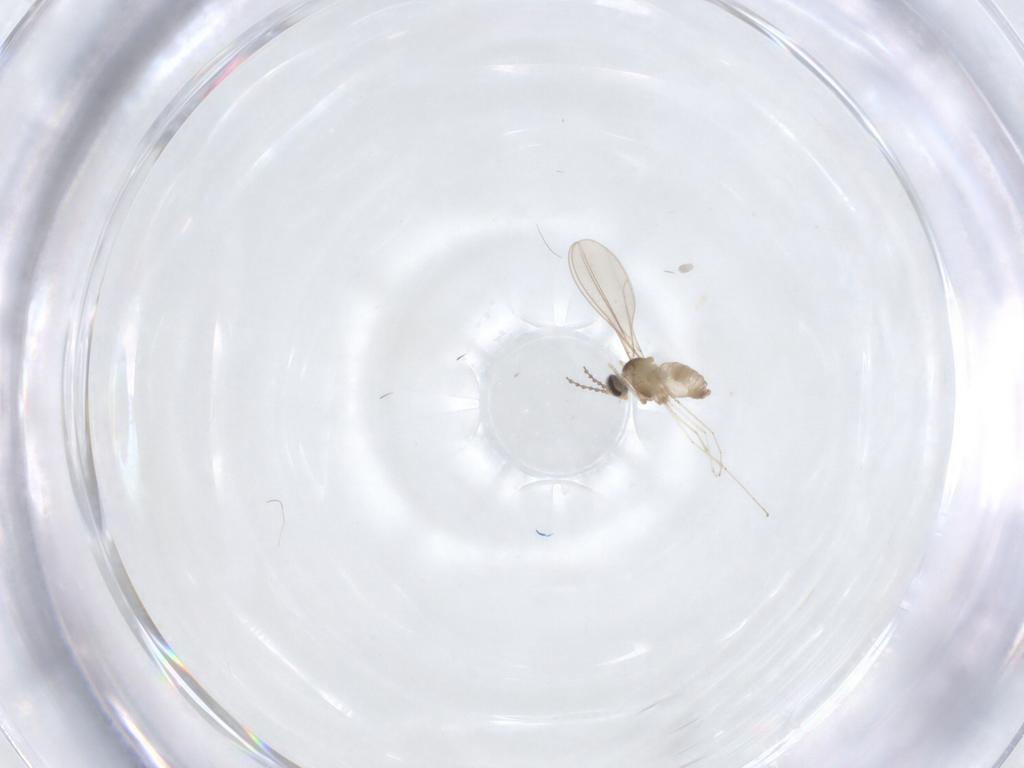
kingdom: Animalia
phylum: Arthropoda
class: Insecta
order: Diptera
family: Cecidomyiidae
